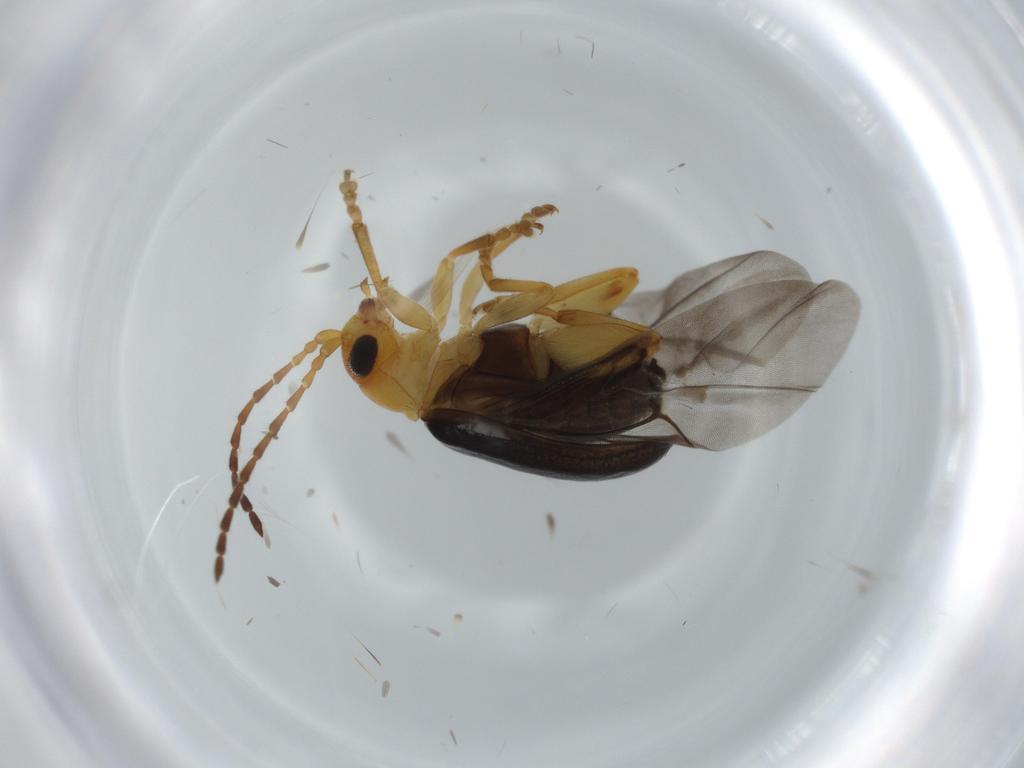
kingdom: Animalia
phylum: Arthropoda
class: Insecta
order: Coleoptera
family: Chrysomelidae
